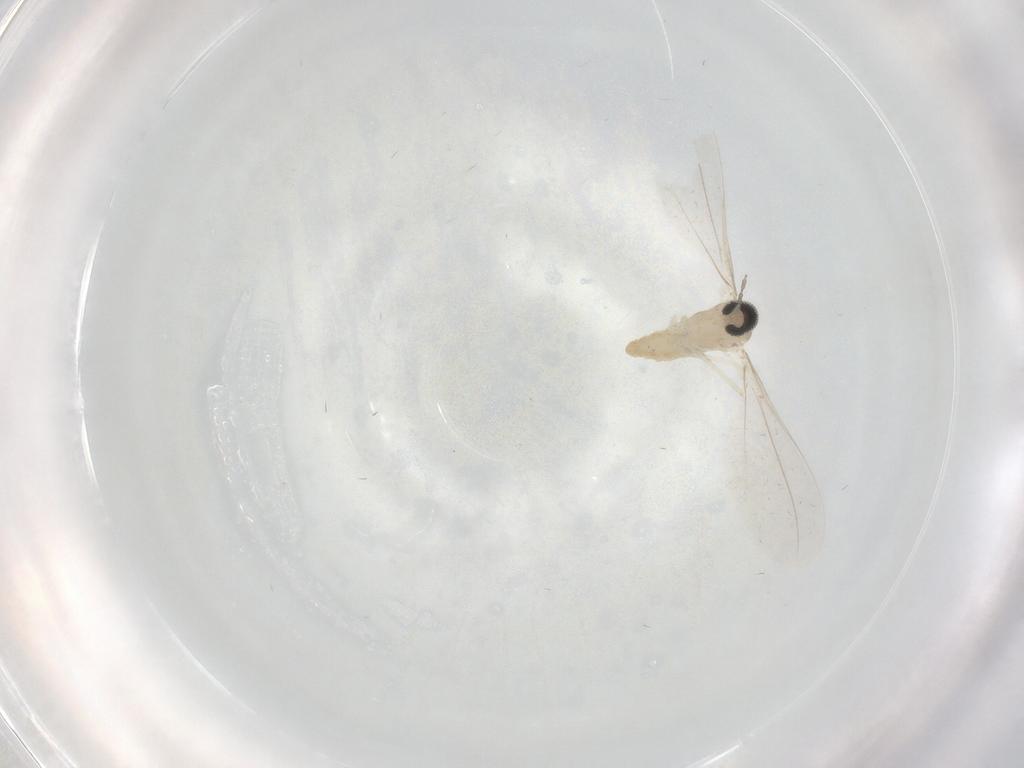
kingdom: Animalia
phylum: Arthropoda
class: Insecta
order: Diptera
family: Cecidomyiidae
